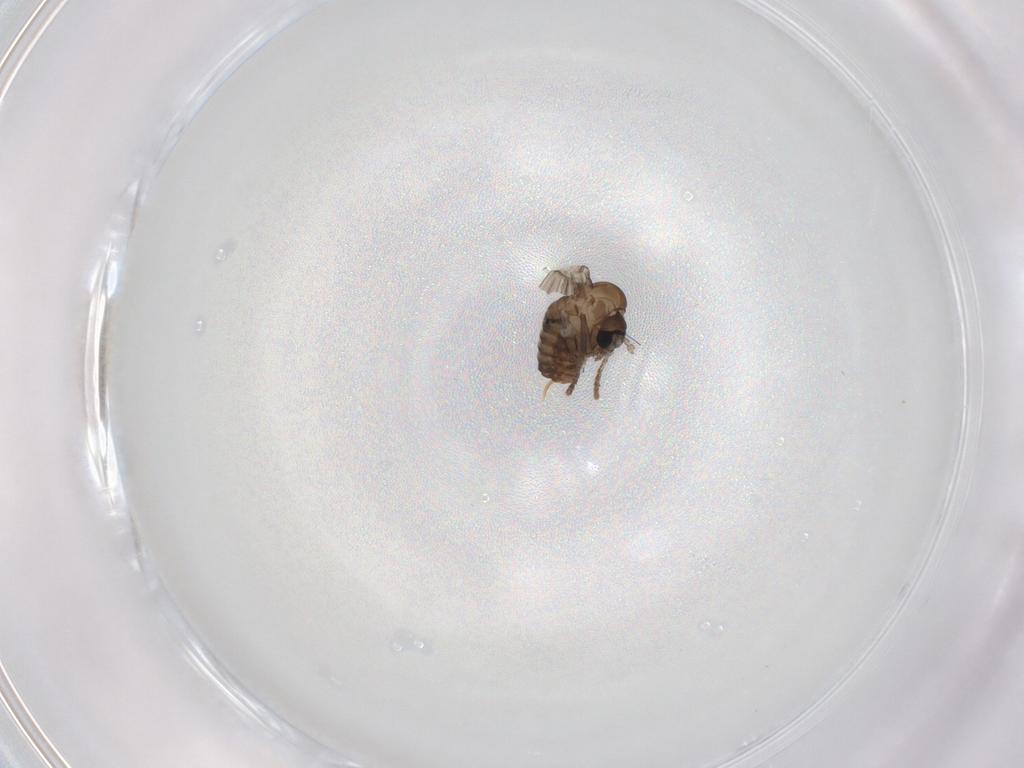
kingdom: Animalia
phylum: Arthropoda
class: Insecta
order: Diptera
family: Psychodidae
